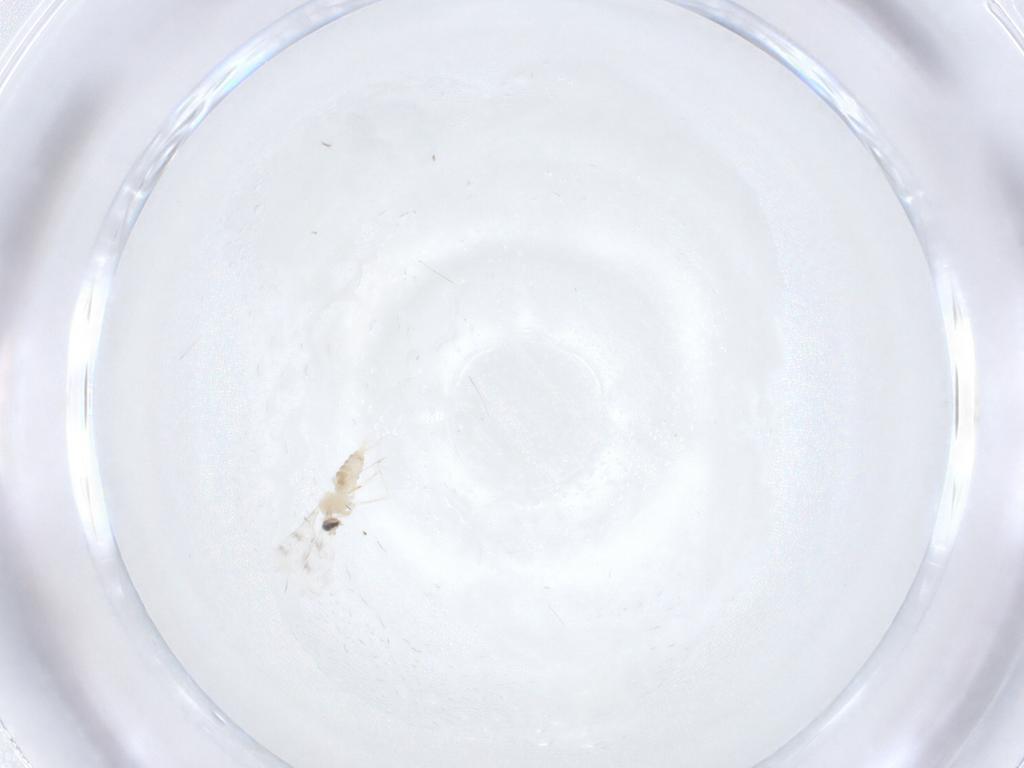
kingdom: Animalia
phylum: Arthropoda
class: Insecta
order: Diptera
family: Cecidomyiidae
